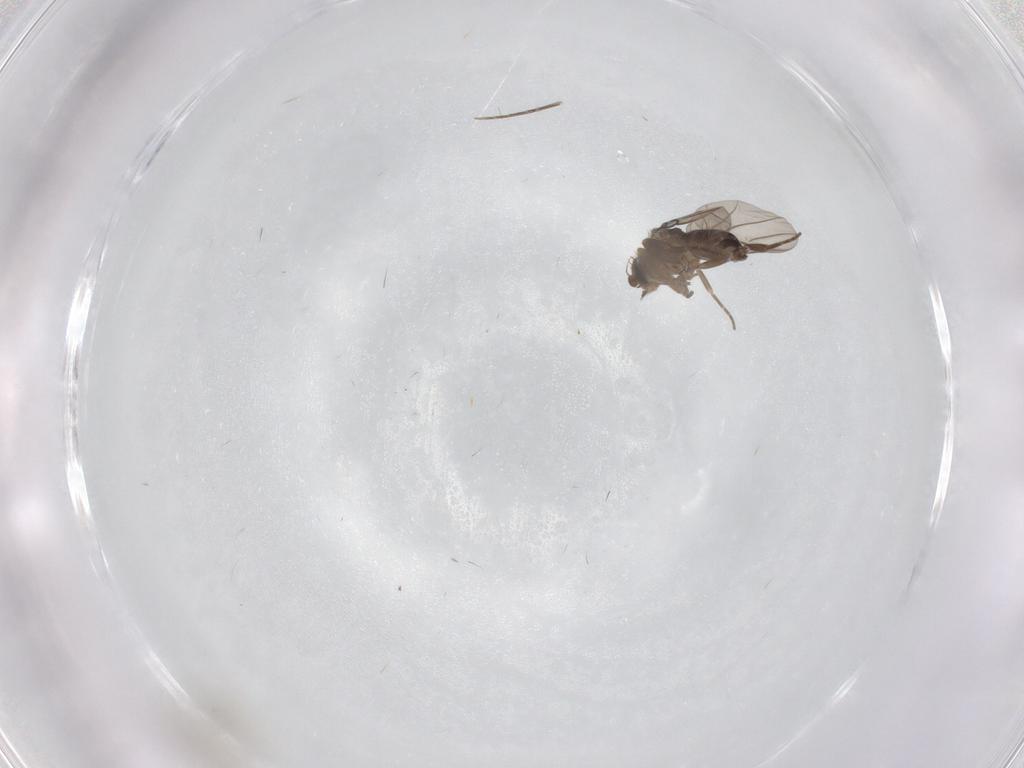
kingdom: Animalia
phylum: Arthropoda
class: Insecta
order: Diptera
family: Phoridae
